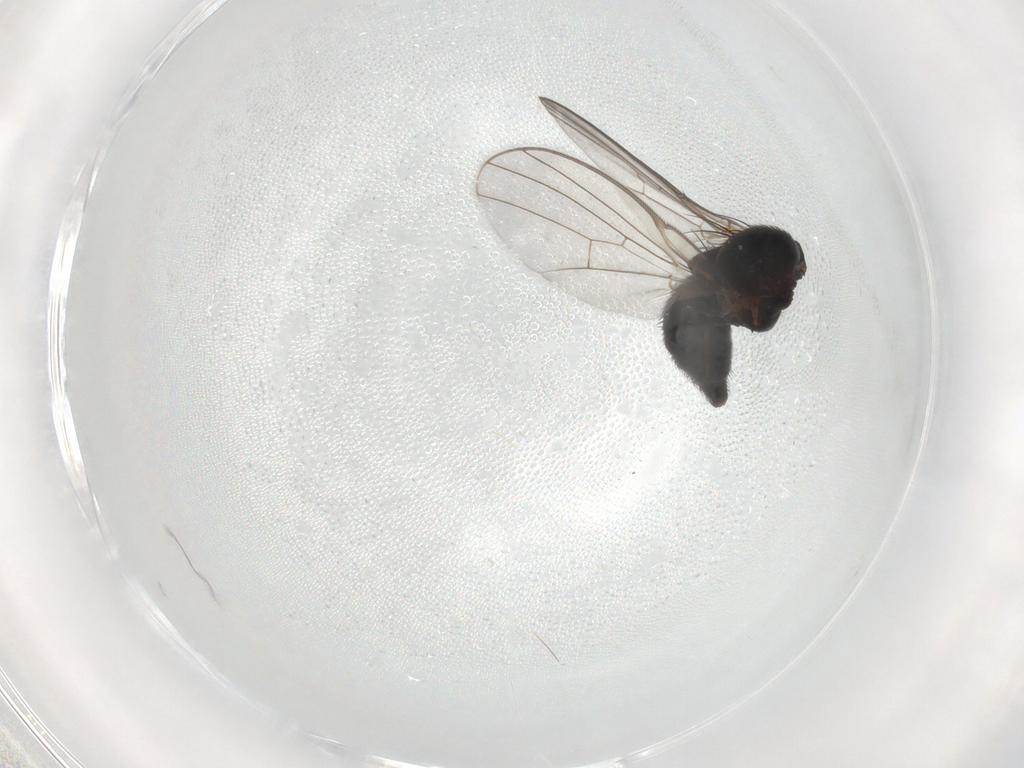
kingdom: Animalia
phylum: Arthropoda
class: Insecta
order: Diptera
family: Agromyzidae
